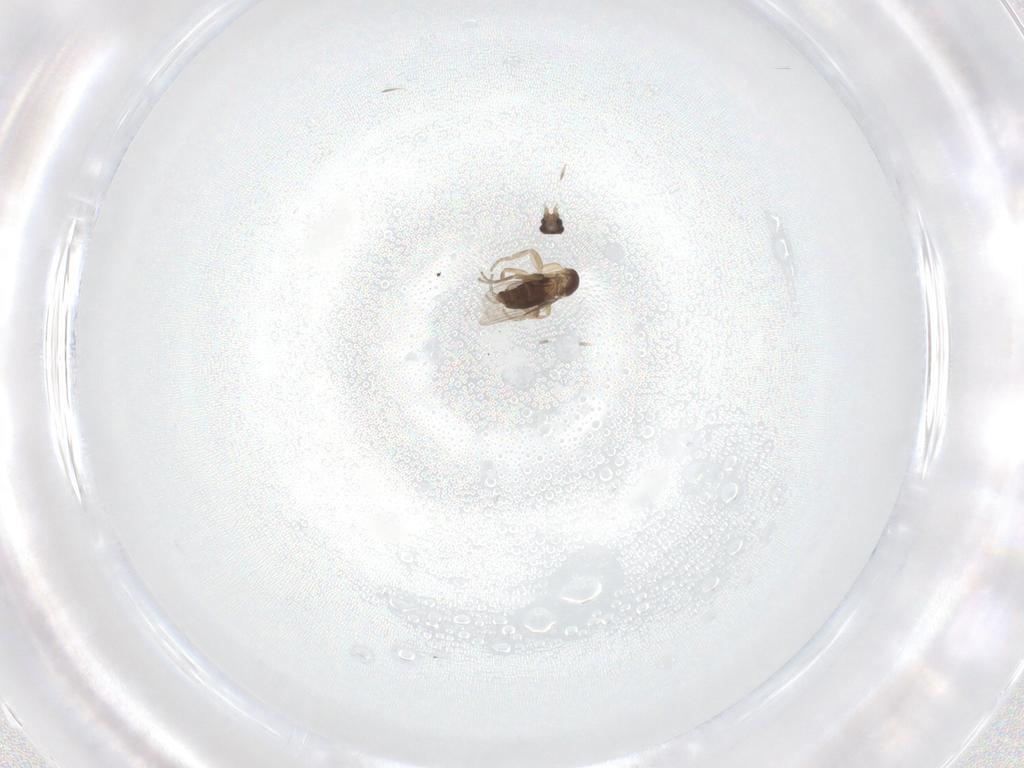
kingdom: Animalia
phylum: Arthropoda
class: Insecta
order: Diptera
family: Phoridae
